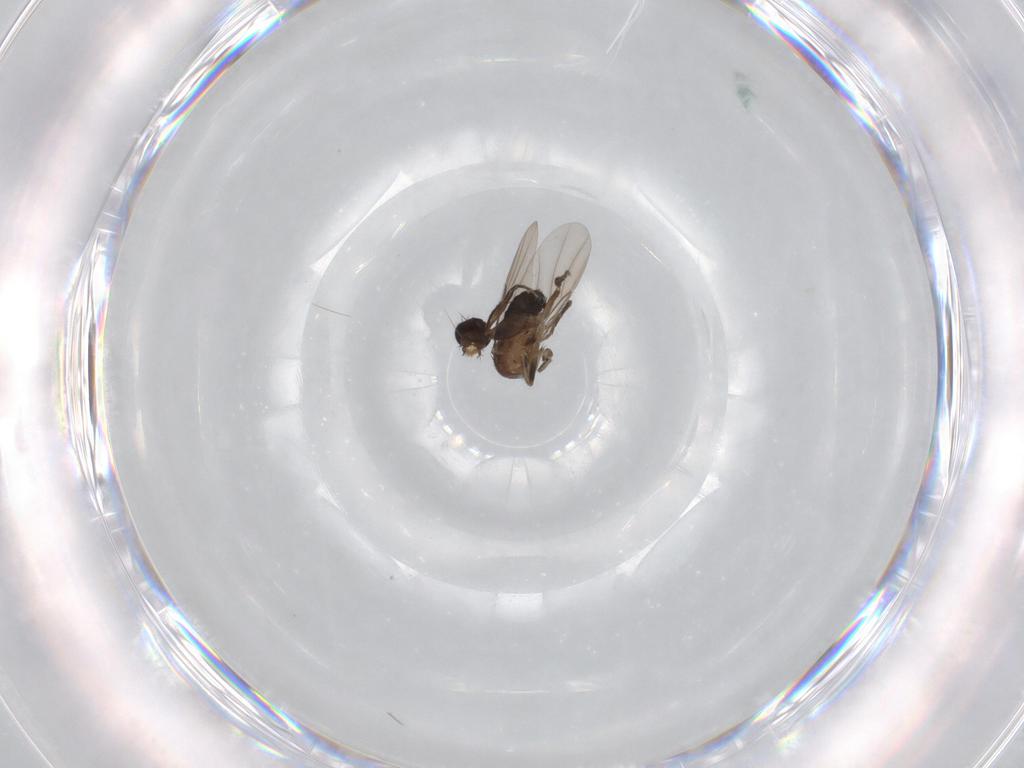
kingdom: Animalia
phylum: Arthropoda
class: Insecta
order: Diptera
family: Phoridae
